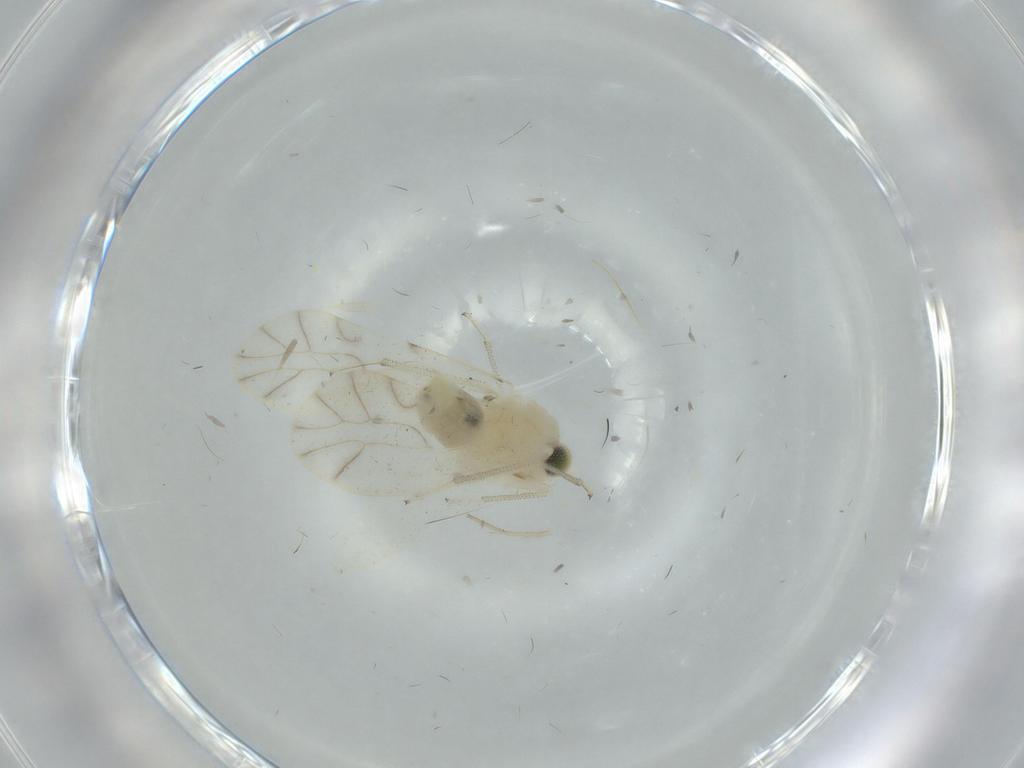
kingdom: Animalia
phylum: Arthropoda
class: Insecta
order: Psocodea
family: Caeciliusidae
